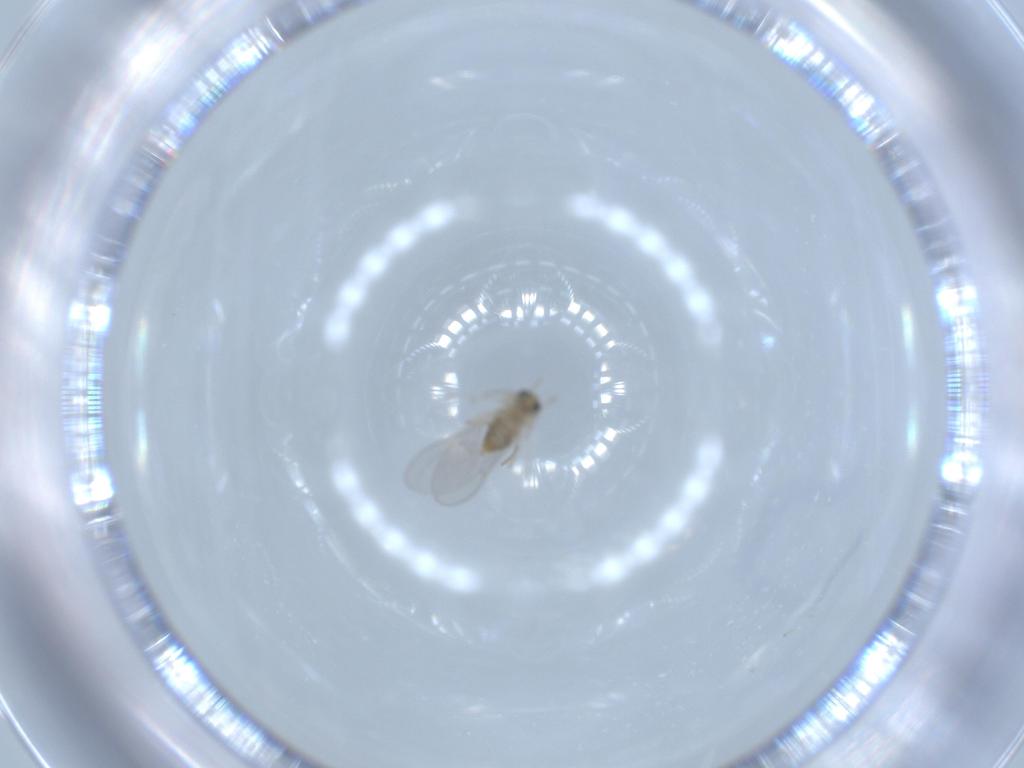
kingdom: Animalia
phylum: Arthropoda
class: Insecta
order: Diptera
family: Cecidomyiidae
